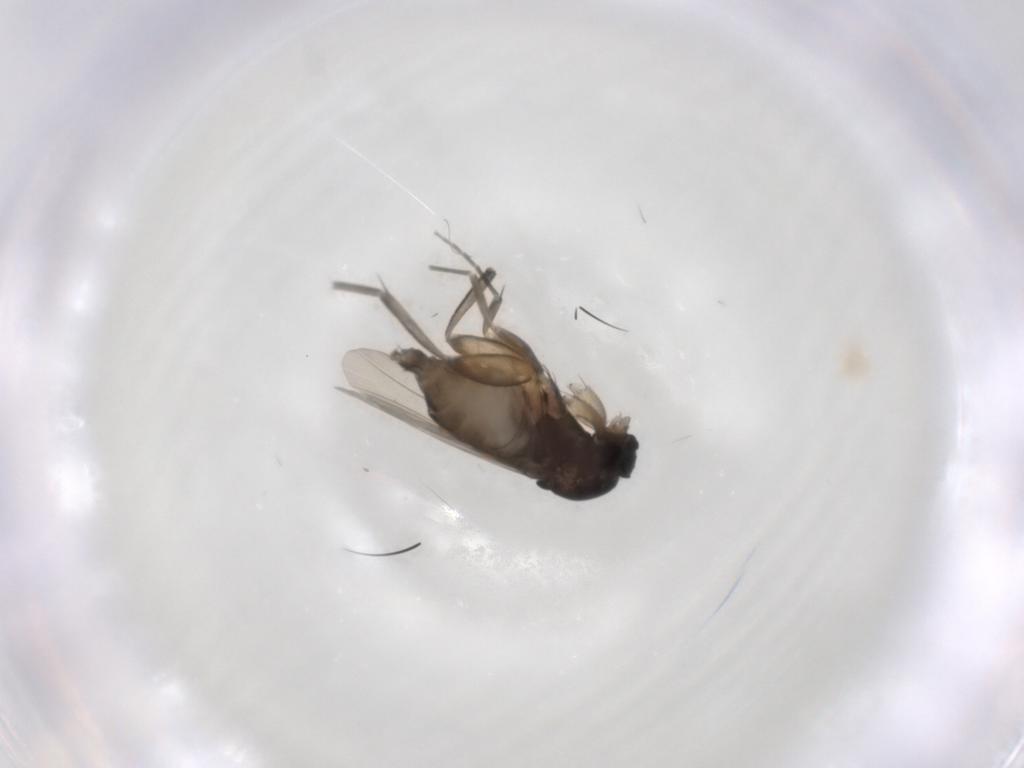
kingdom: Animalia
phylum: Arthropoda
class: Insecta
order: Diptera
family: Phoridae
